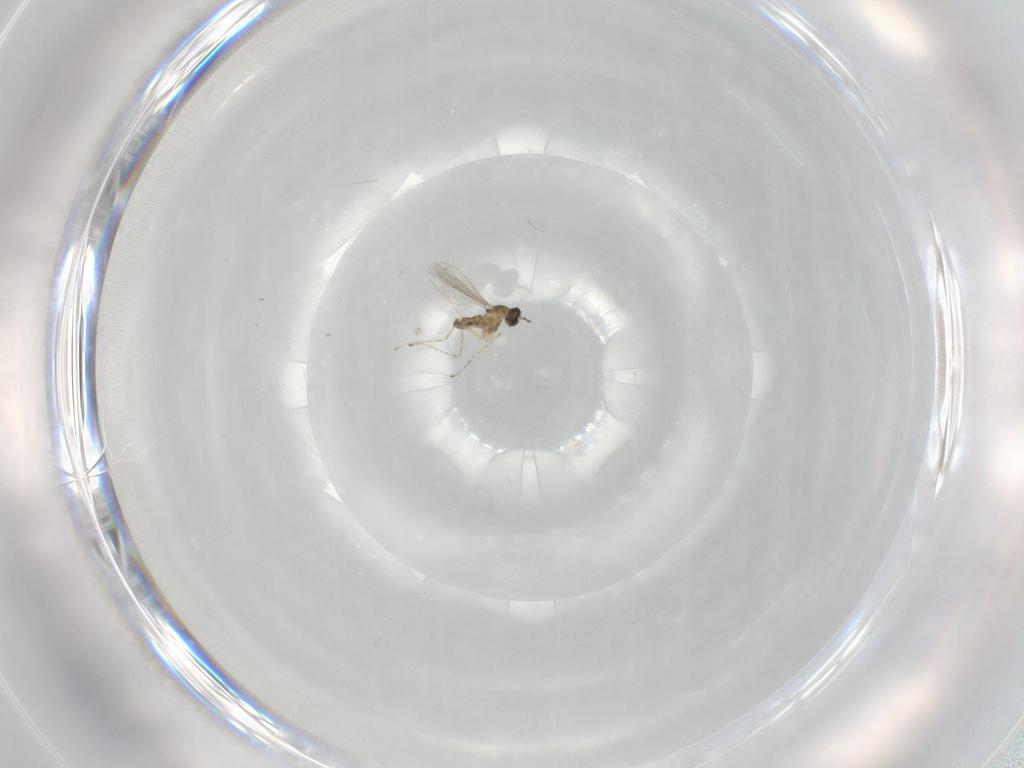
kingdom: Animalia
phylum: Arthropoda
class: Insecta
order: Diptera
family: Cecidomyiidae
